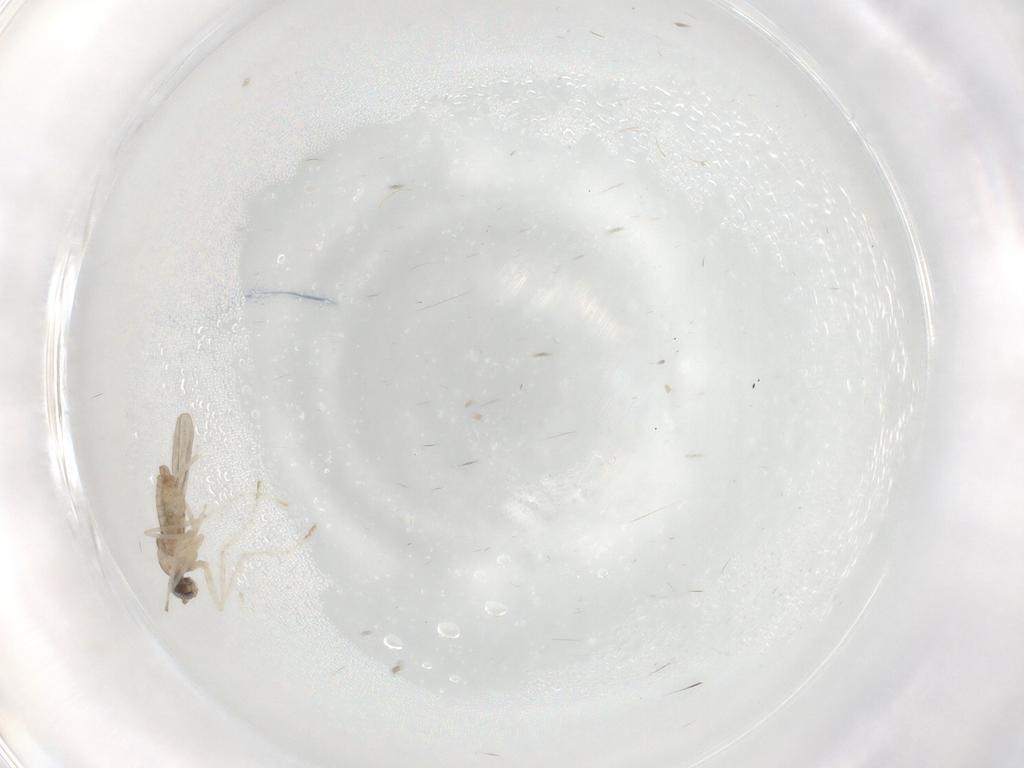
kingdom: Animalia
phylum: Arthropoda
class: Insecta
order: Diptera
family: Cecidomyiidae
